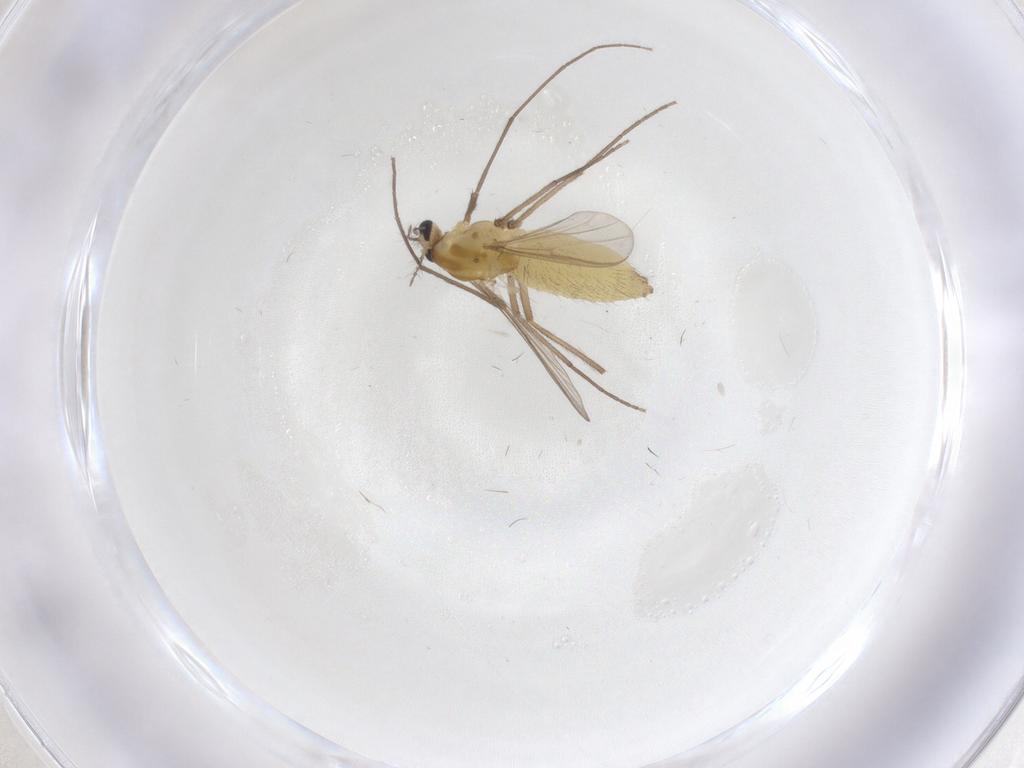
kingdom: Animalia
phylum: Arthropoda
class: Insecta
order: Diptera
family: Chironomidae
